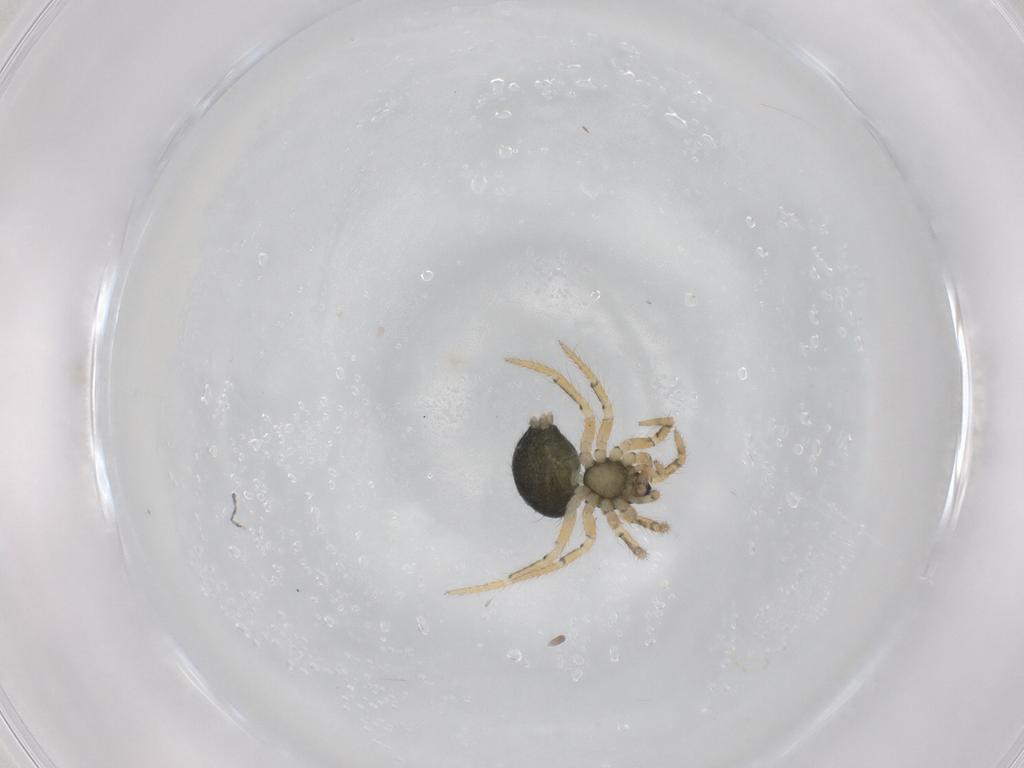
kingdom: Animalia
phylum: Arthropoda
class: Arachnida
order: Araneae
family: Theridiidae
